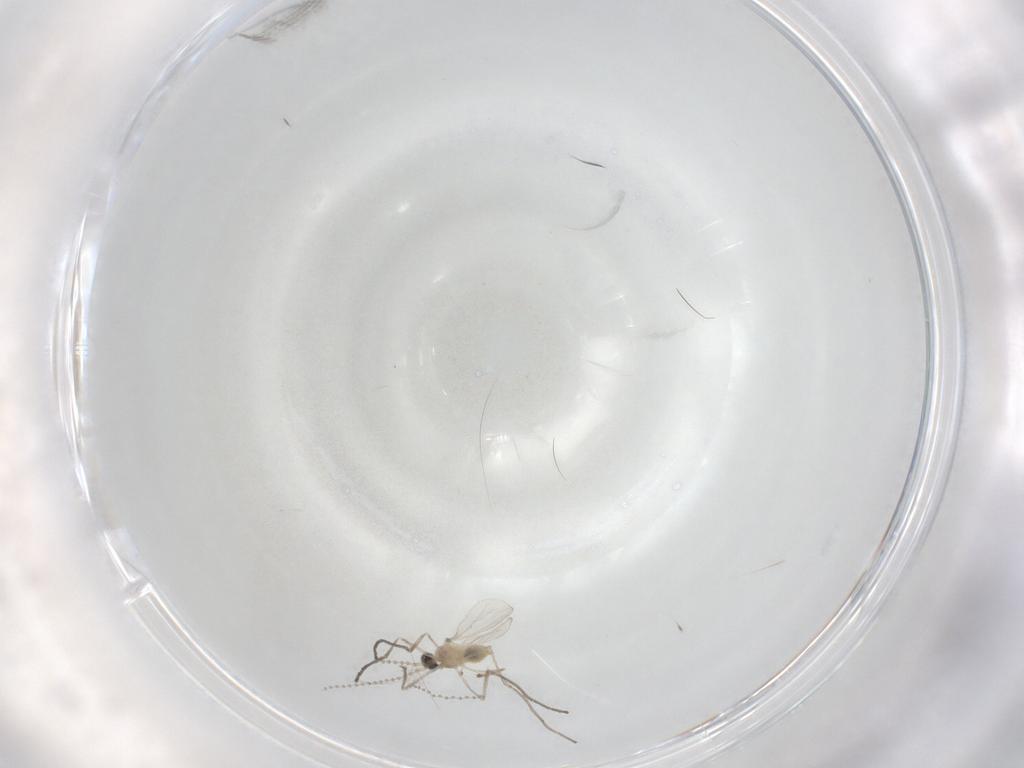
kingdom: Animalia
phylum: Arthropoda
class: Insecta
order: Diptera
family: Cecidomyiidae
